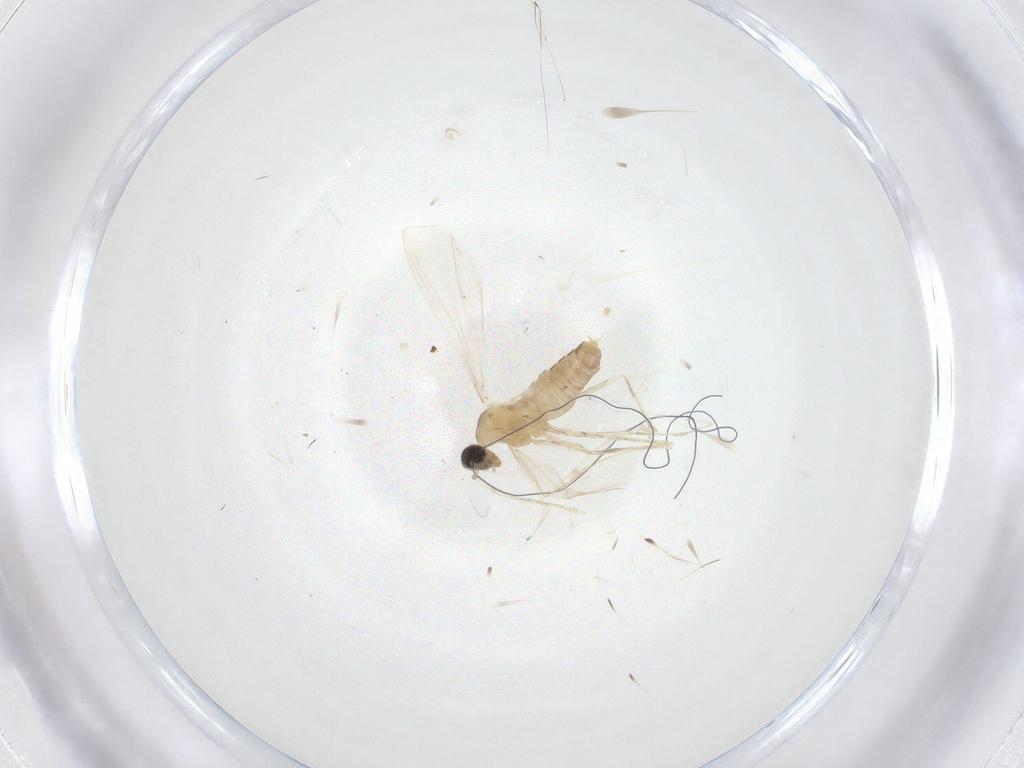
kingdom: Animalia
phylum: Arthropoda
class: Insecta
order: Diptera
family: Cecidomyiidae
